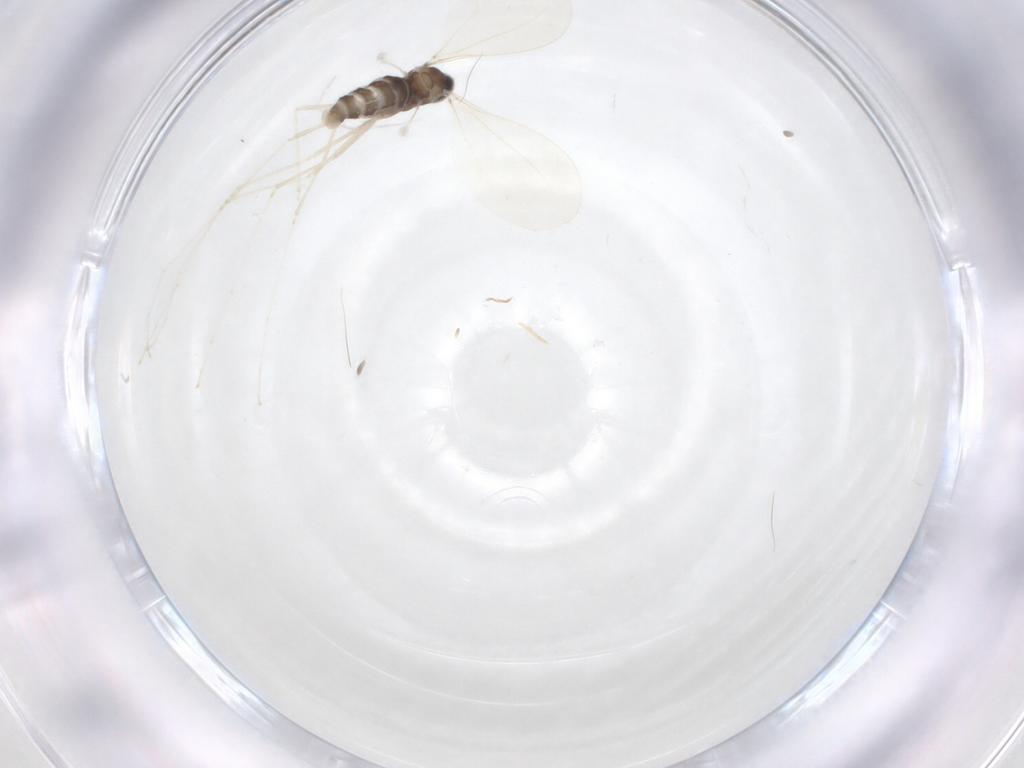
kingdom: Animalia
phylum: Arthropoda
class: Insecta
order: Diptera
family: Cecidomyiidae
